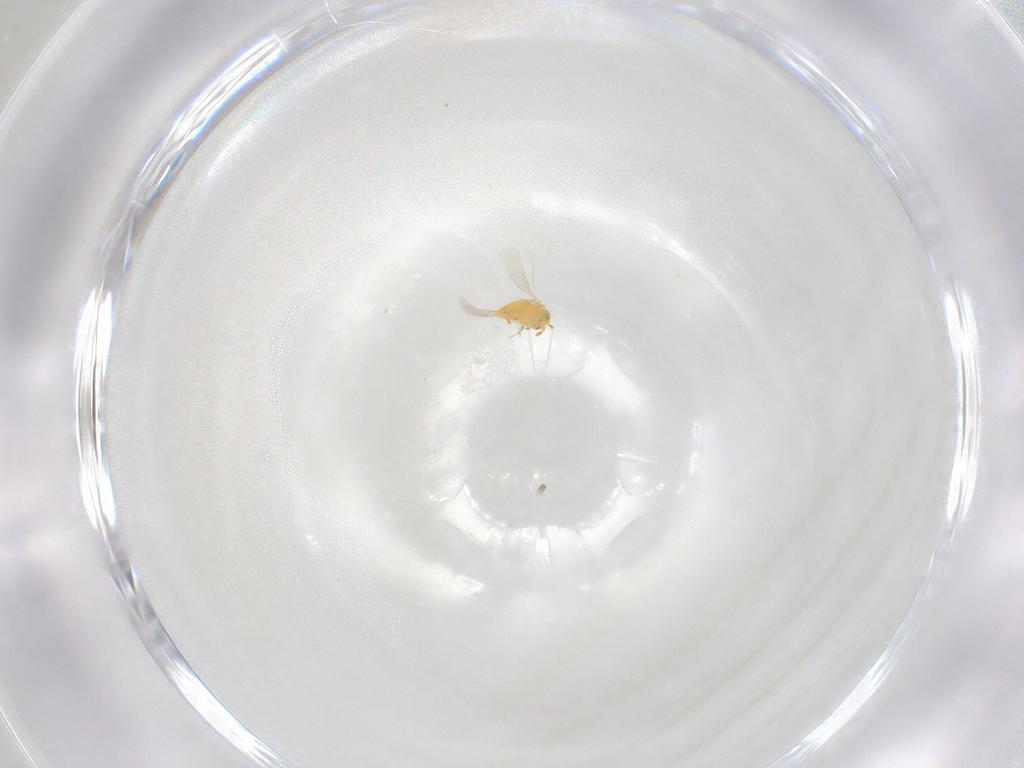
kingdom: Animalia
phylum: Arthropoda
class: Insecta
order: Hymenoptera
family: Aphelinidae
